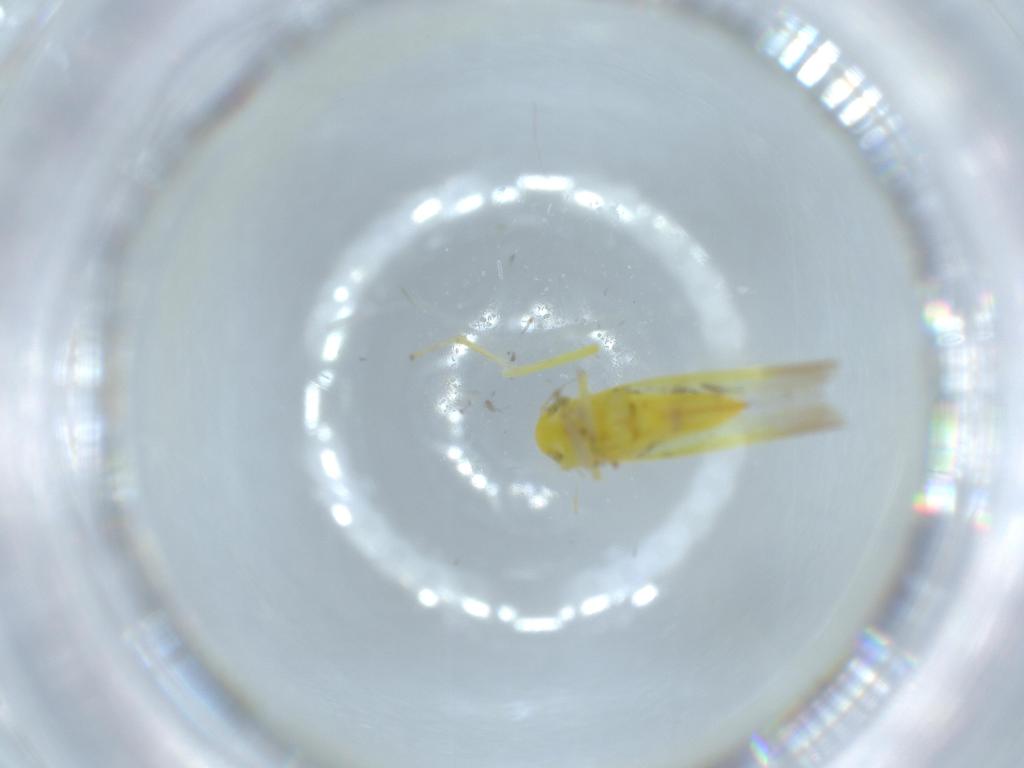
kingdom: Animalia
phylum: Arthropoda
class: Insecta
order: Hemiptera
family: Cicadellidae
